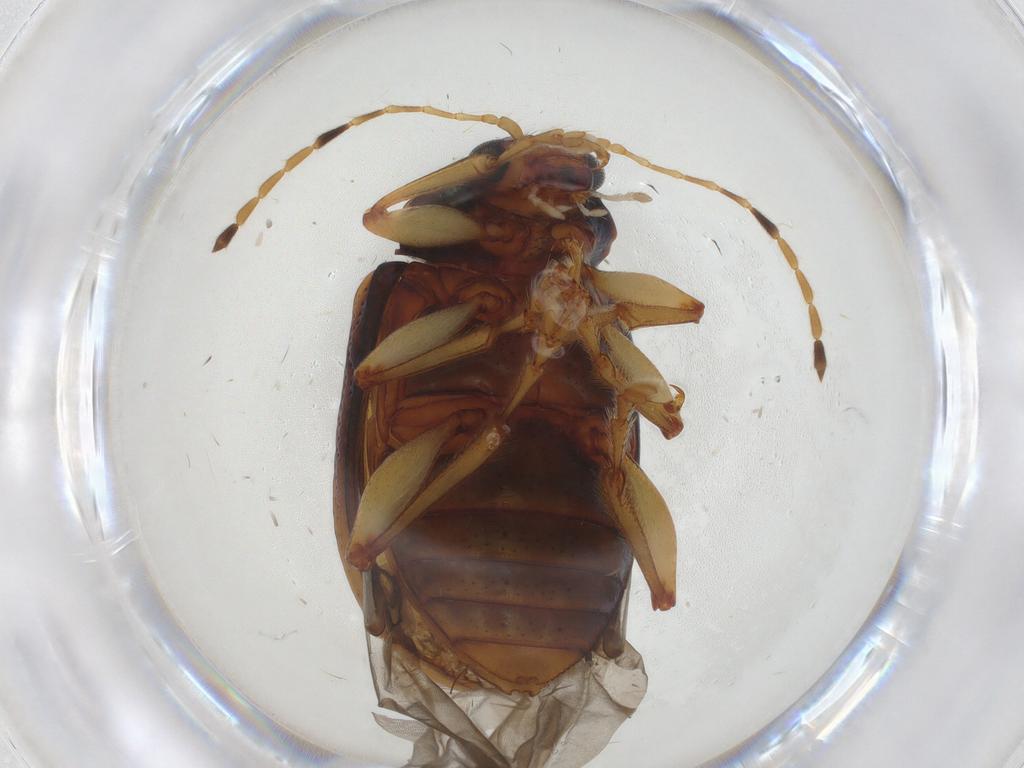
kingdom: Animalia
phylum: Arthropoda
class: Insecta
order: Coleoptera
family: Chrysomelidae
